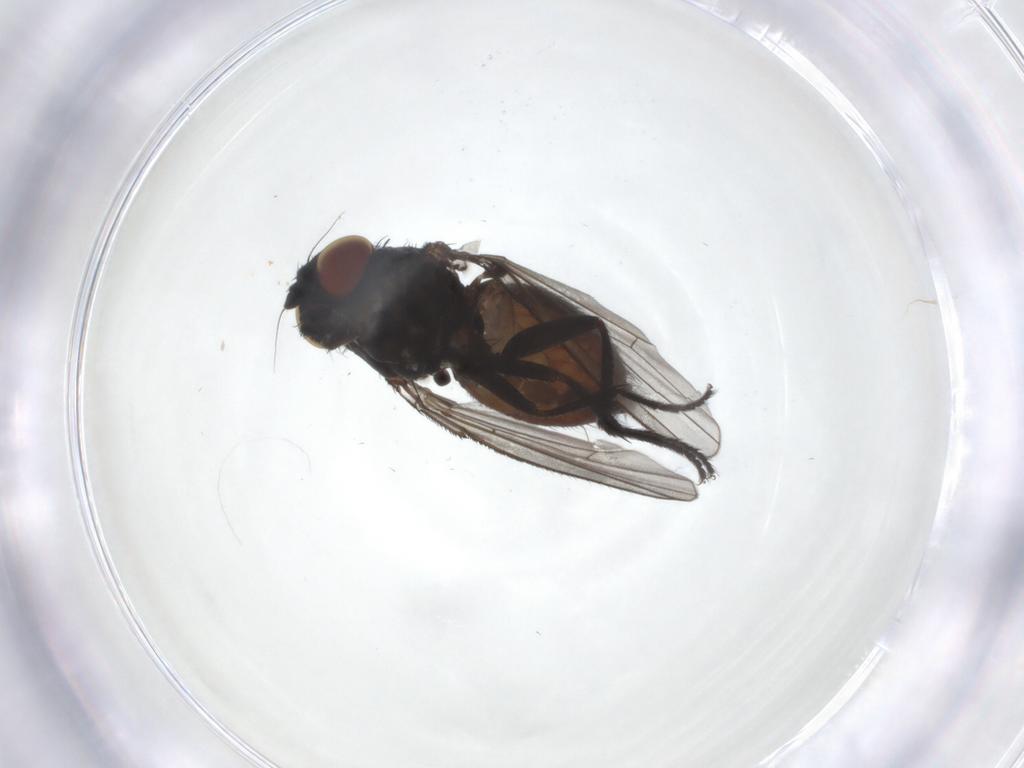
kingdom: Animalia
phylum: Arthropoda
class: Insecta
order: Diptera
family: Milichiidae
